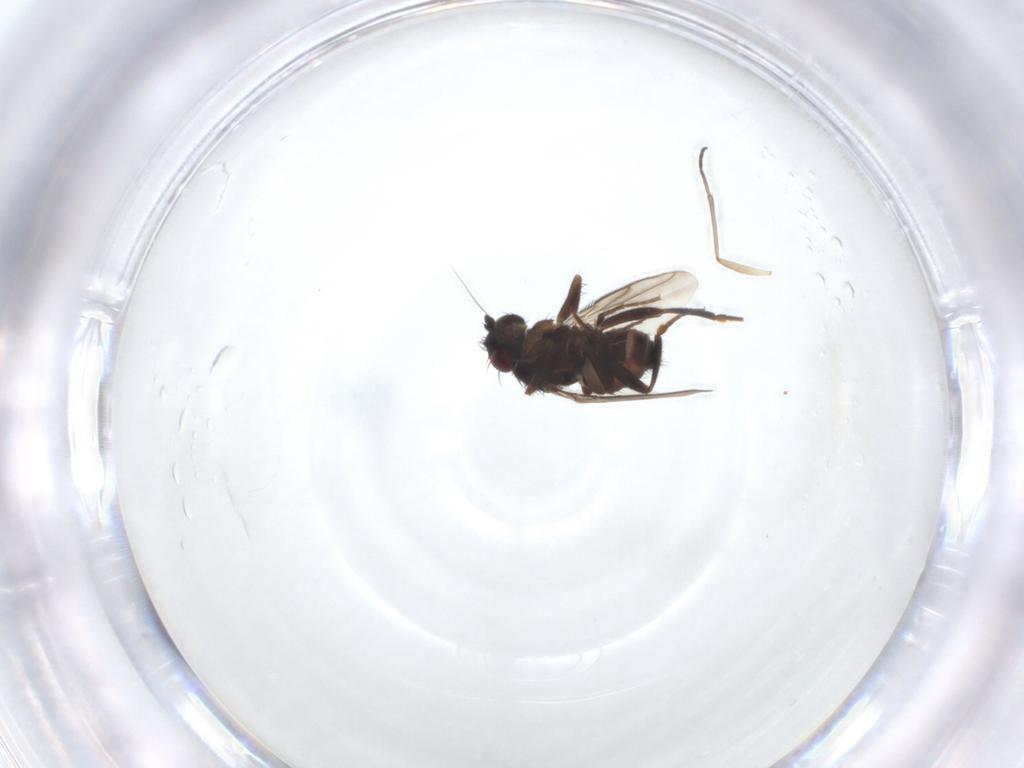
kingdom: Animalia
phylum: Arthropoda
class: Insecta
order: Diptera
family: Sphaeroceridae
